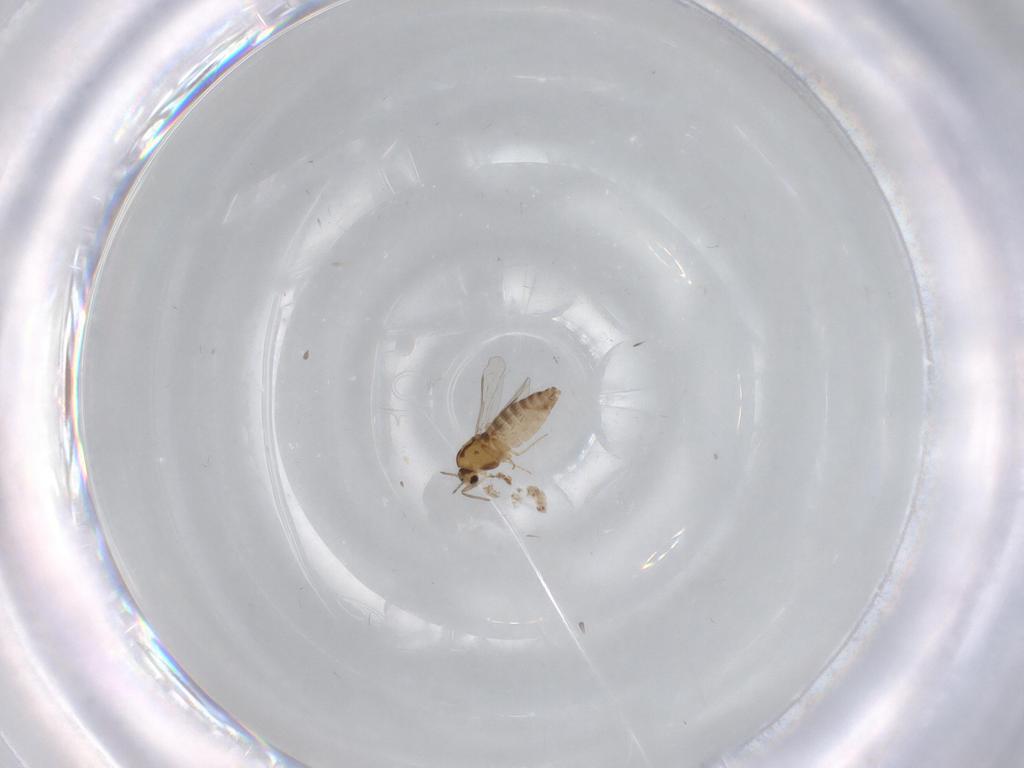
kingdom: Animalia
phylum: Arthropoda
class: Insecta
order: Diptera
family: Chironomidae
